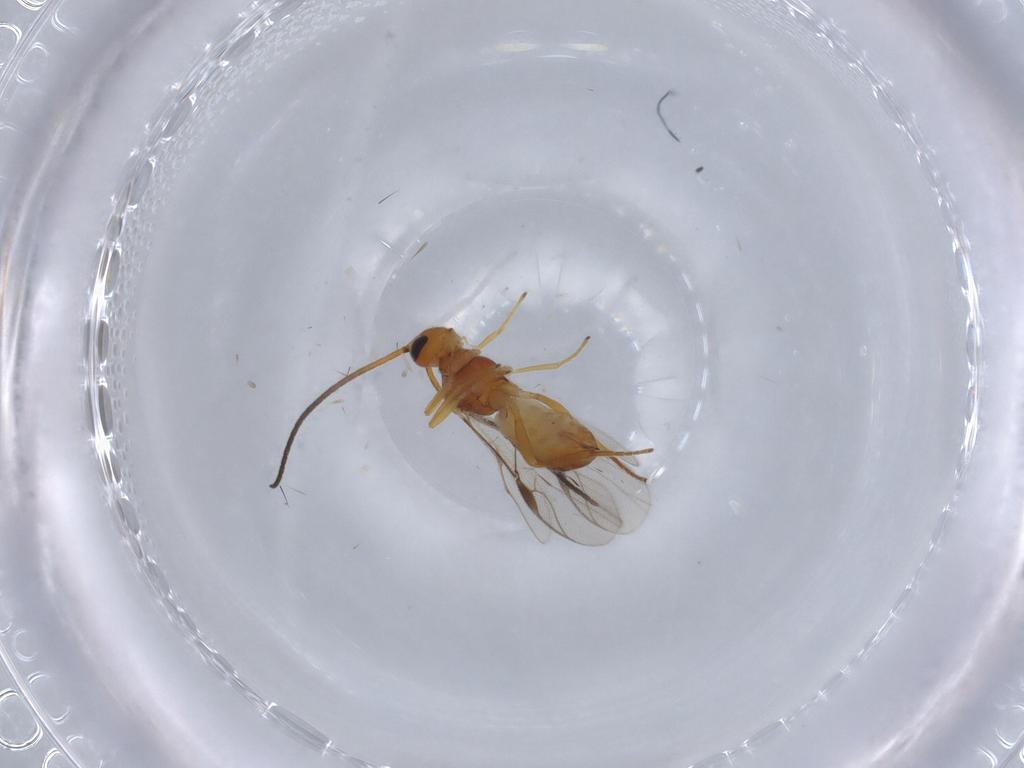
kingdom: Animalia
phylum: Arthropoda
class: Insecta
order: Hymenoptera
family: Braconidae
